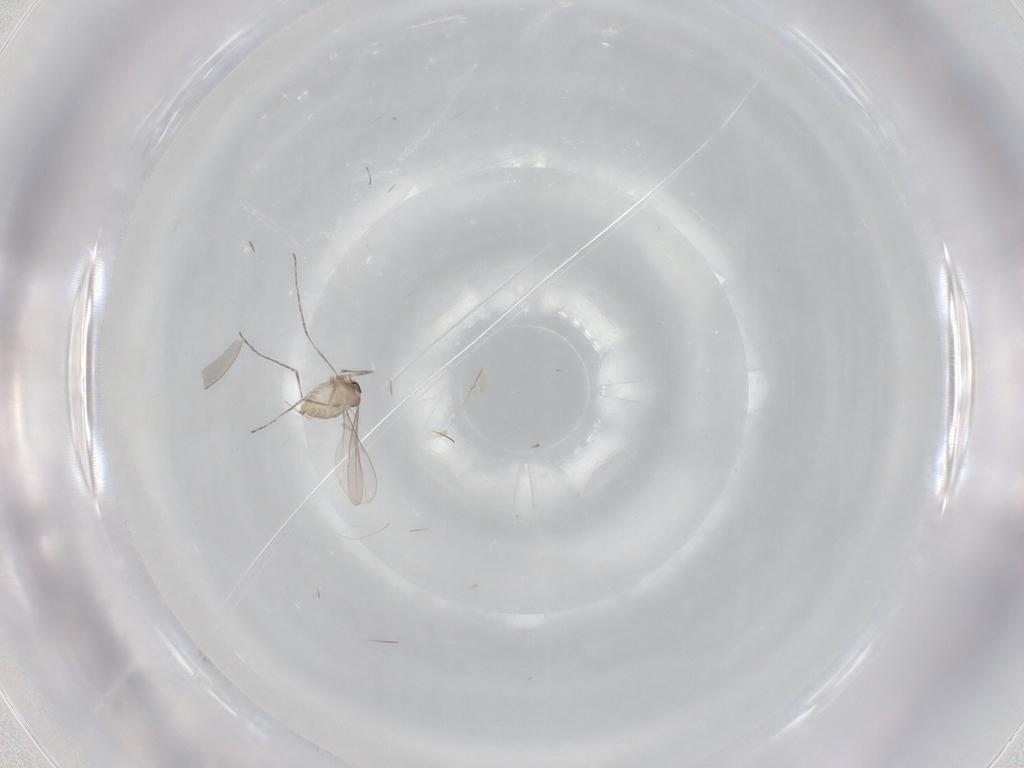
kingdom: Animalia
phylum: Arthropoda
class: Insecta
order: Diptera
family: Cecidomyiidae
